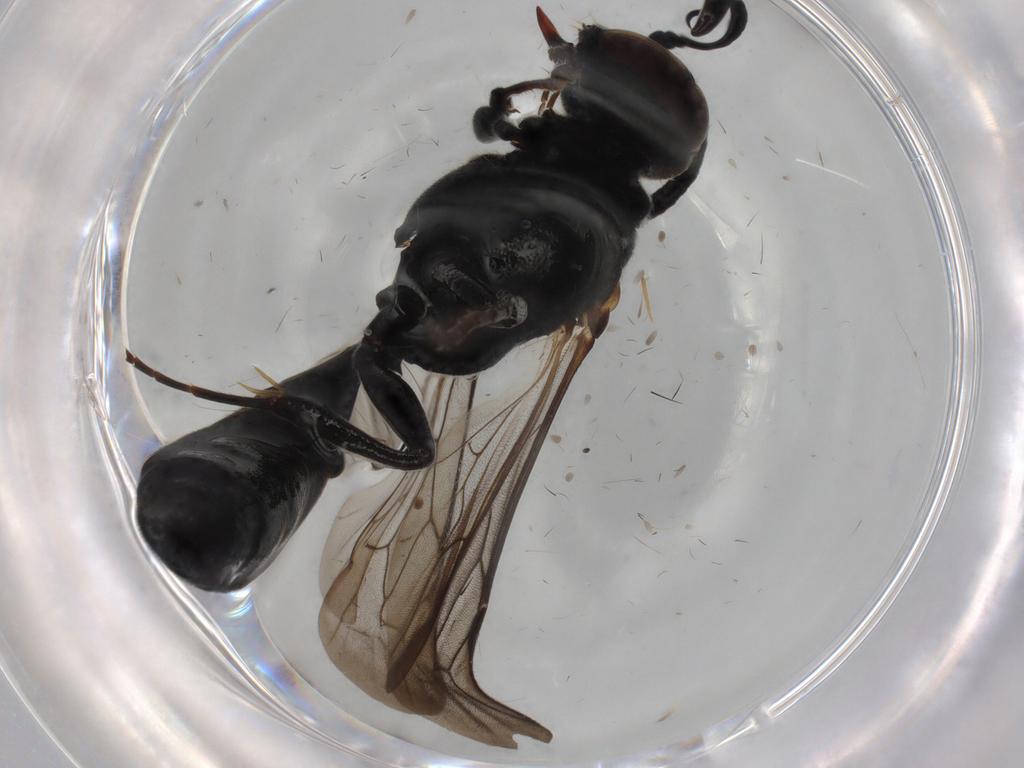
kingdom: Animalia
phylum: Arthropoda
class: Insecta
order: Hymenoptera
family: Crabronidae
